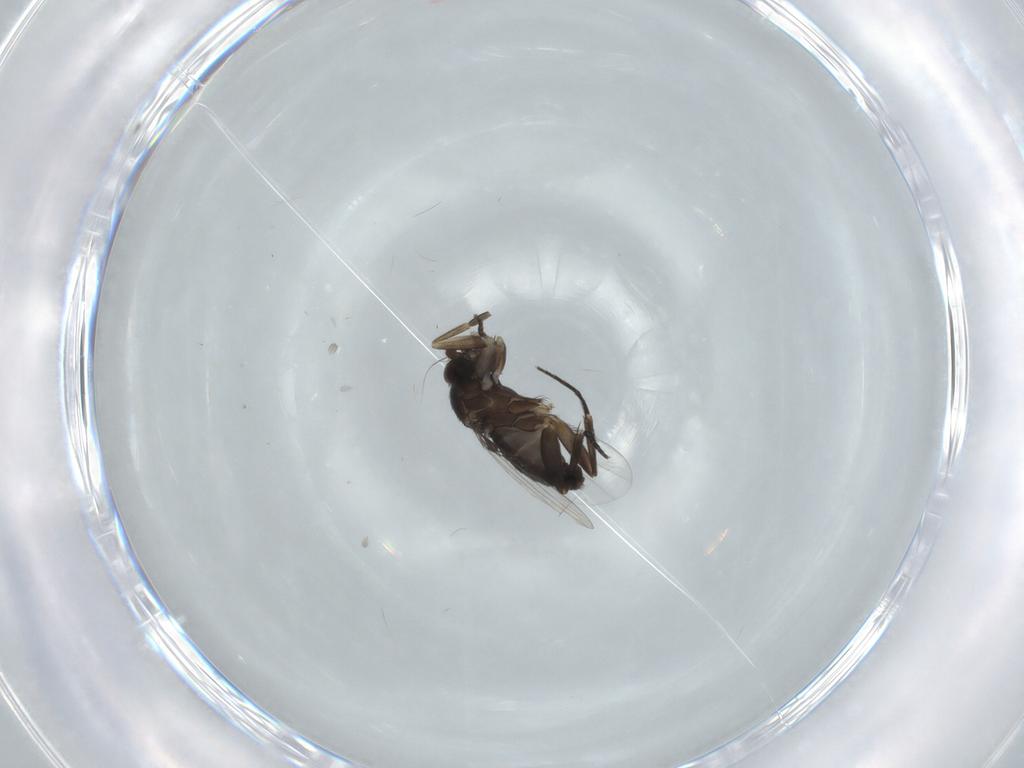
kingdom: Animalia
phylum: Arthropoda
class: Insecta
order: Diptera
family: Phoridae
